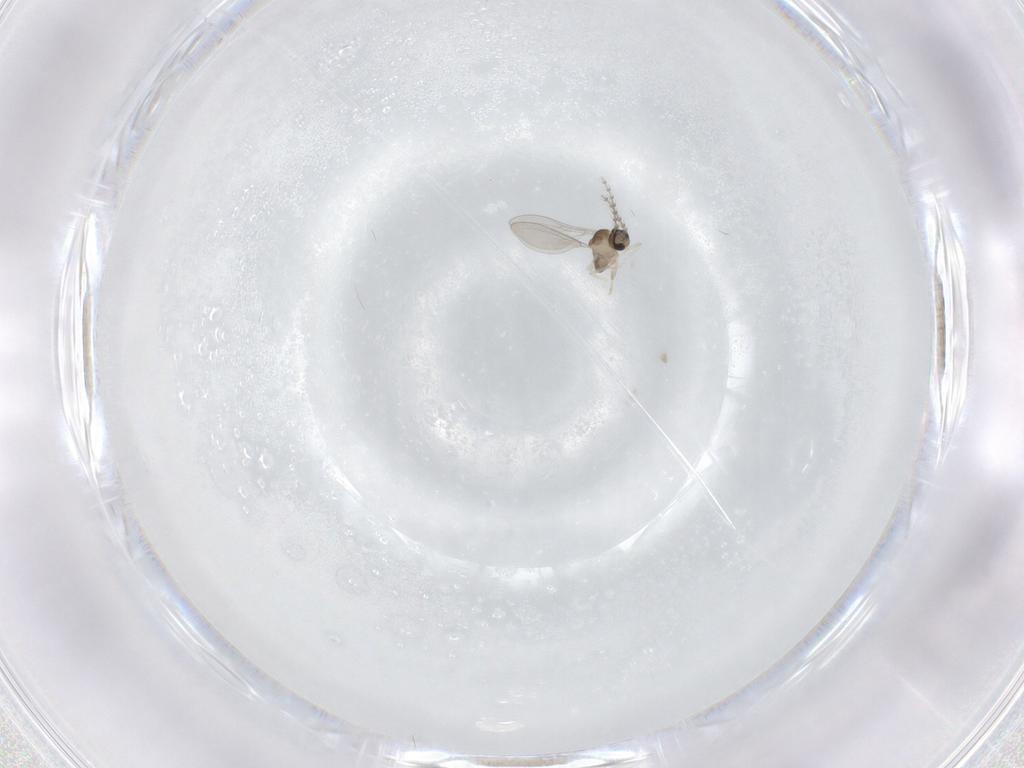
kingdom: Animalia
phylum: Arthropoda
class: Insecta
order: Diptera
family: Cecidomyiidae
